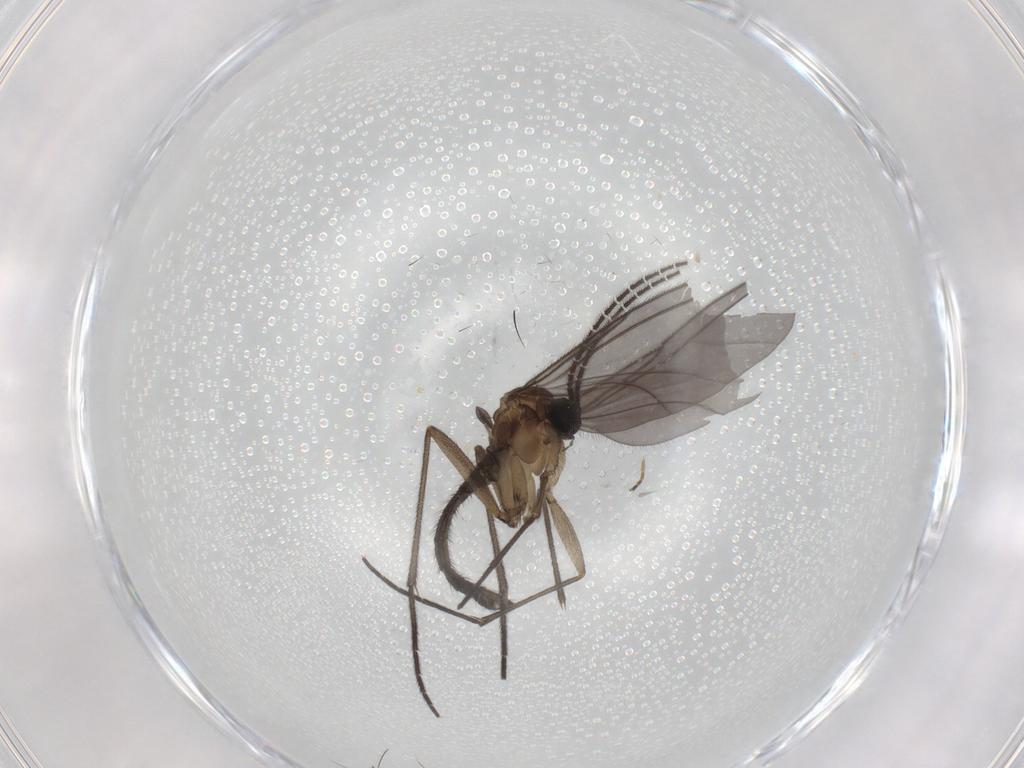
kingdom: Animalia
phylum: Arthropoda
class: Insecta
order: Diptera
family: Sciaridae
